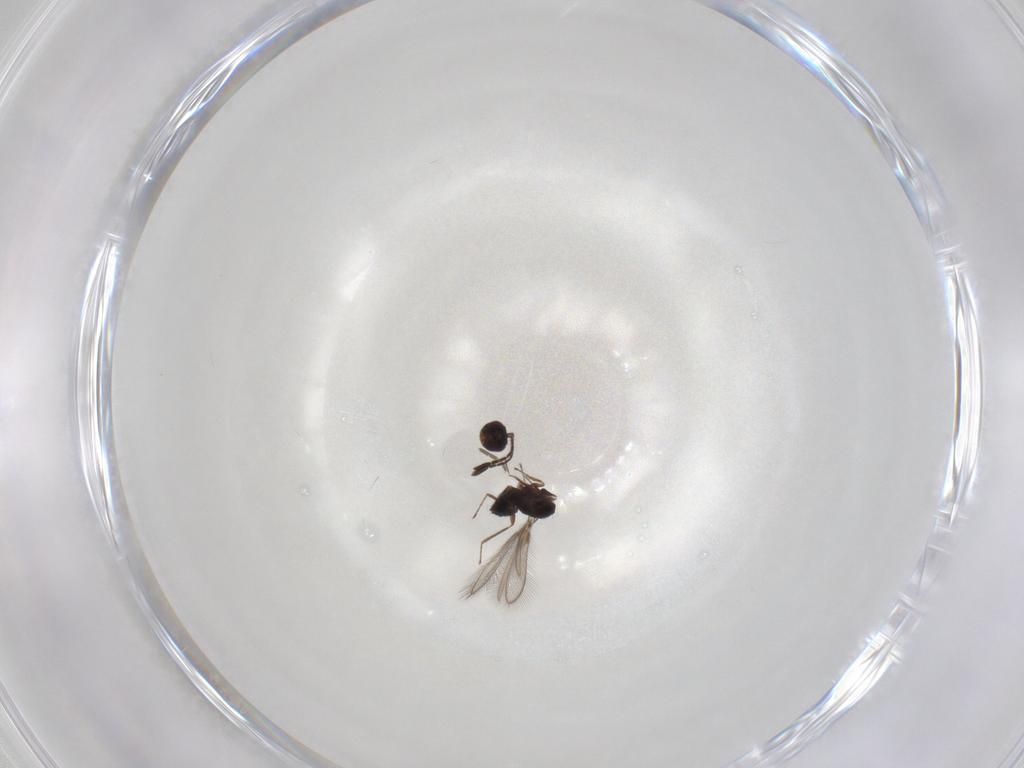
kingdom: Animalia
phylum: Arthropoda
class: Insecta
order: Hymenoptera
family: Mymaridae
